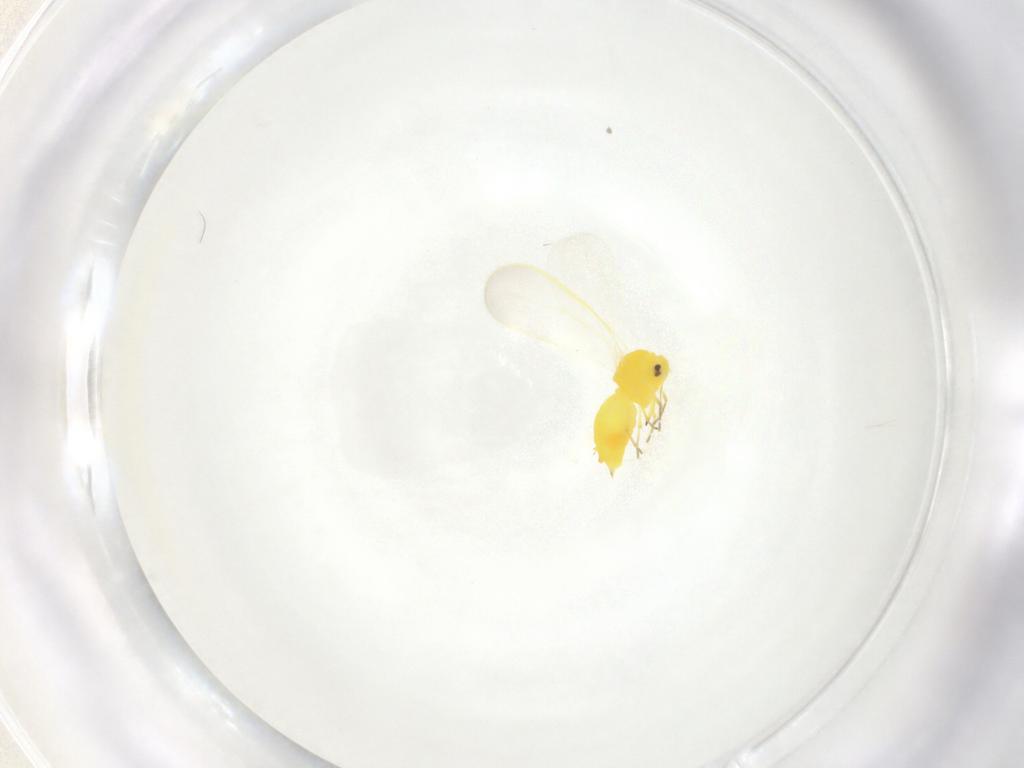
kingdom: Animalia
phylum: Arthropoda
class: Insecta
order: Hemiptera
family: Aleyrodidae
